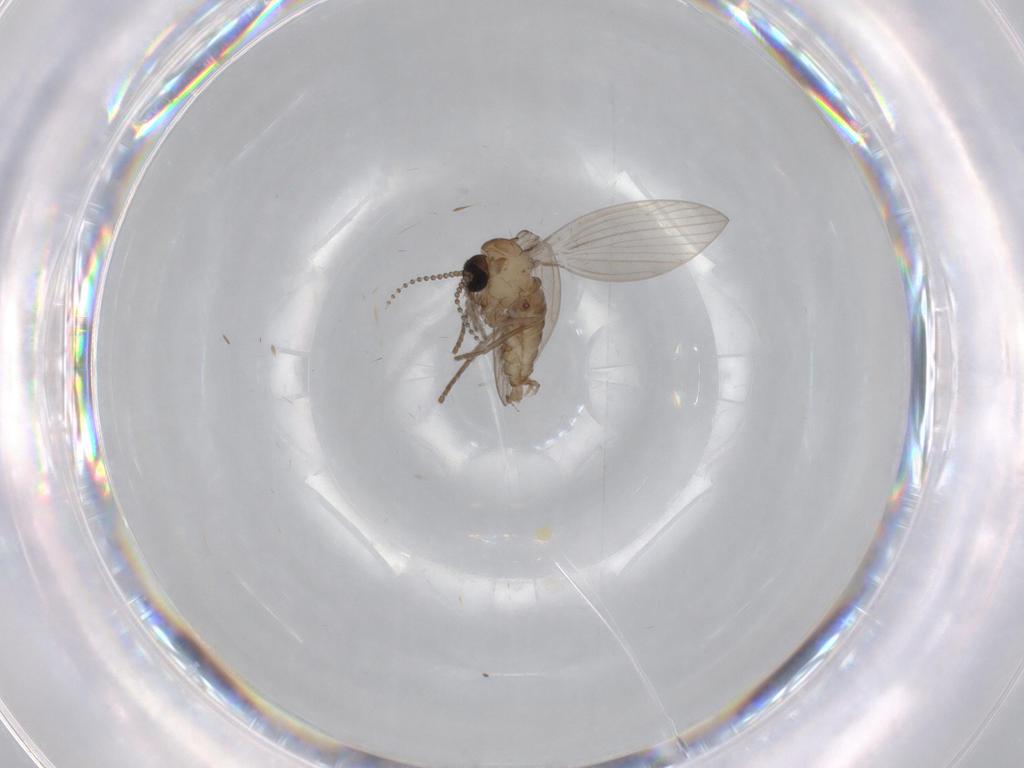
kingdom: Animalia
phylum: Arthropoda
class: Insecta
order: Diptera
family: Psychodidae
